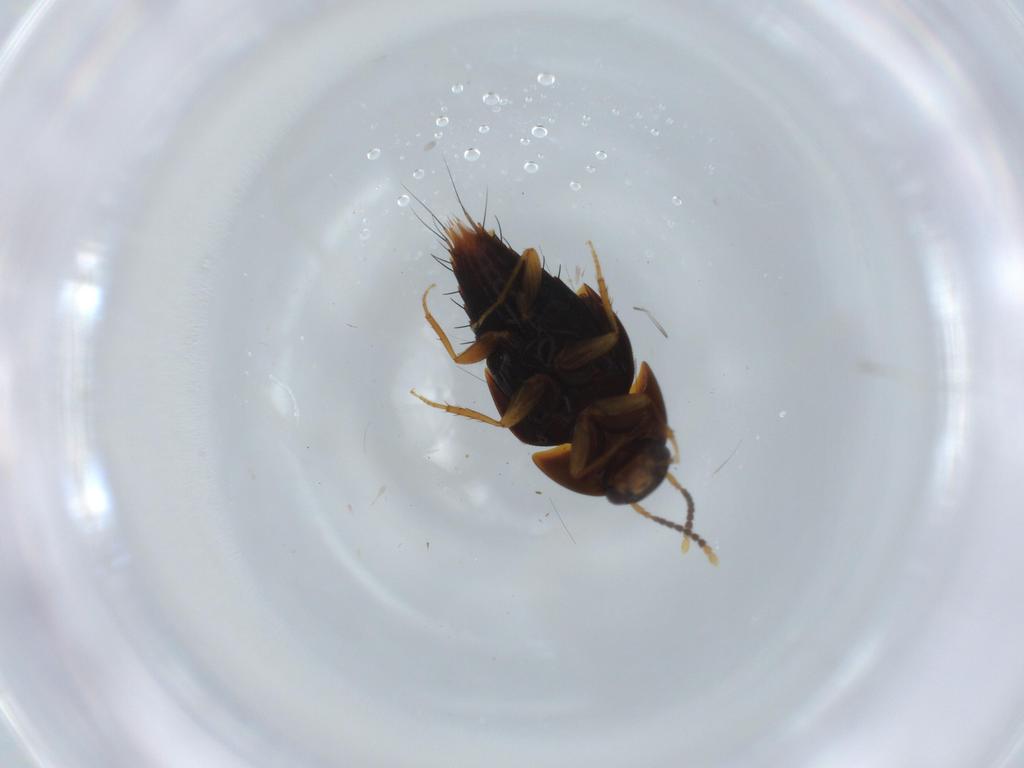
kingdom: Animalia
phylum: Arthropoda
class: Insecta
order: Coleoptera
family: Staphylinidae
